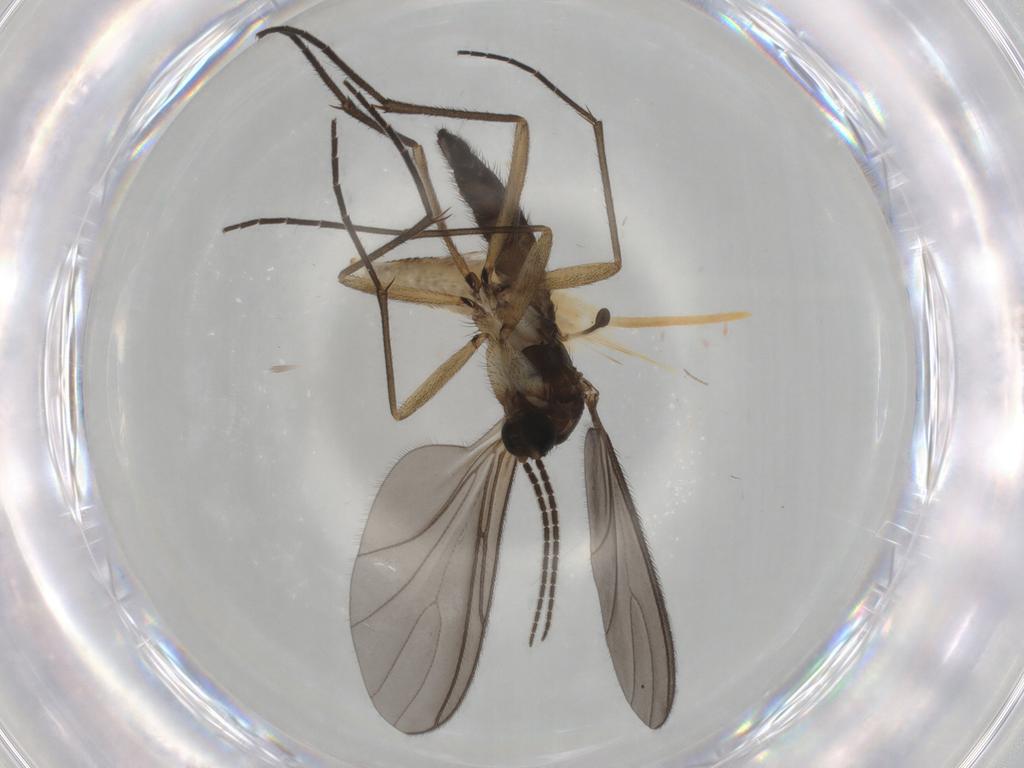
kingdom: Animalia
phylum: Arthropoda
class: Insecta
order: Diptera
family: Sciaridae
